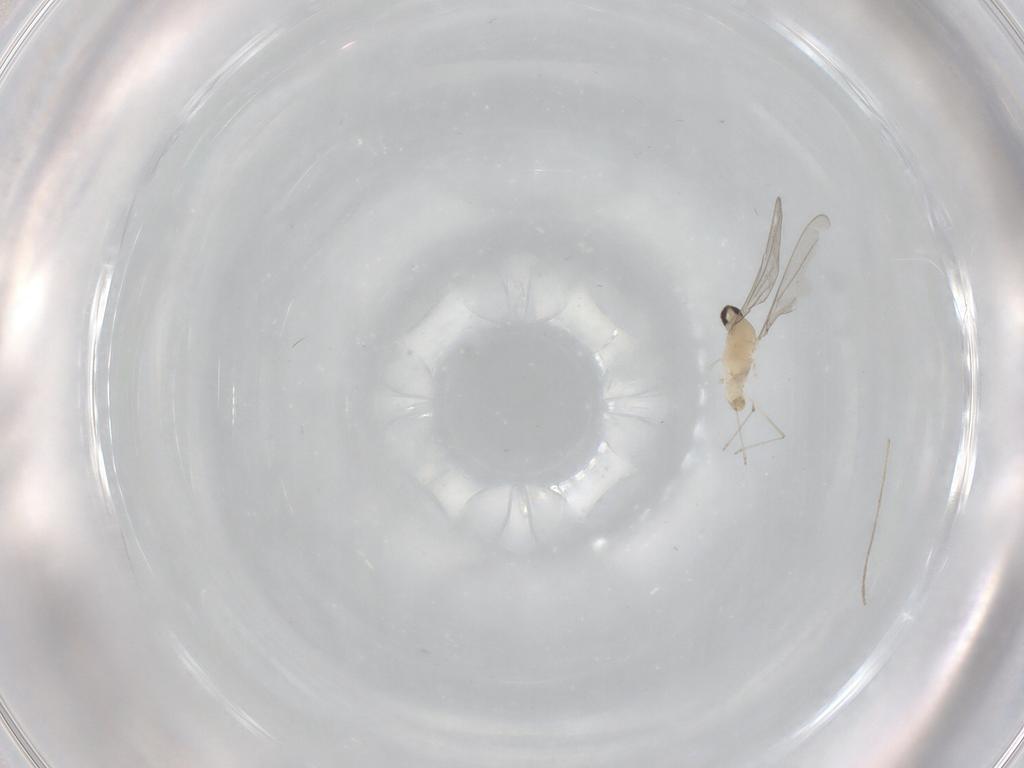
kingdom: Animalia
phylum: Arthropoda
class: Insecta
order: Diptera
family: Cecidomyiidae
